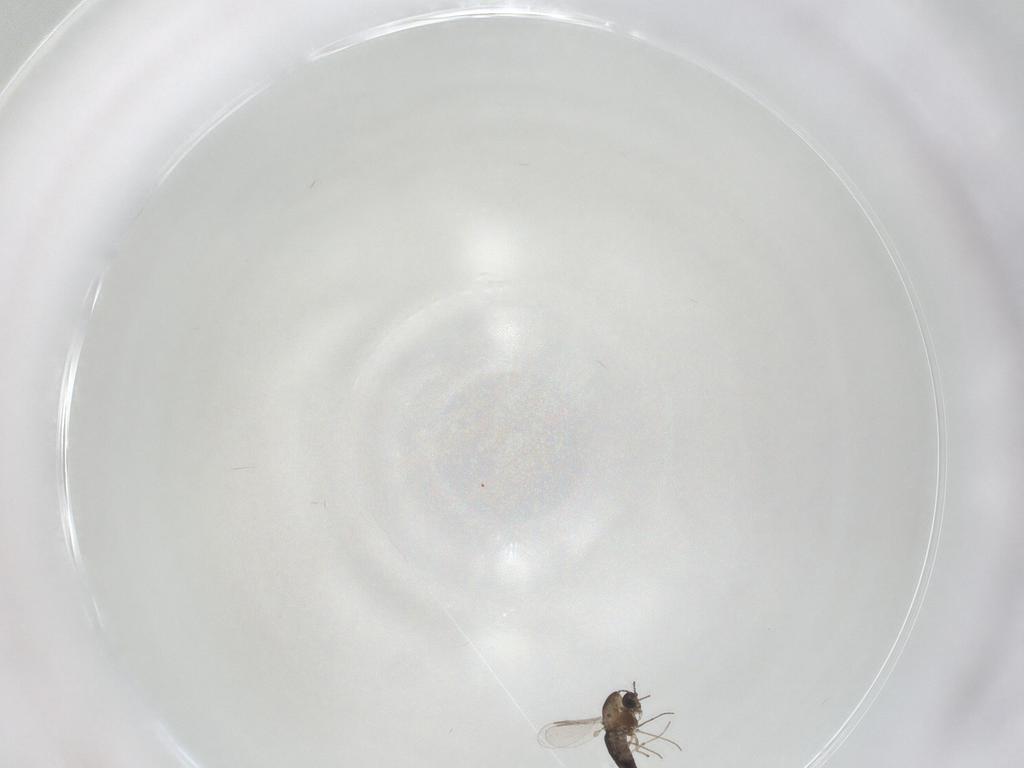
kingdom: Animalia
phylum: Arthropoda
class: Insecta
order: Diptera
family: Chironomidae
